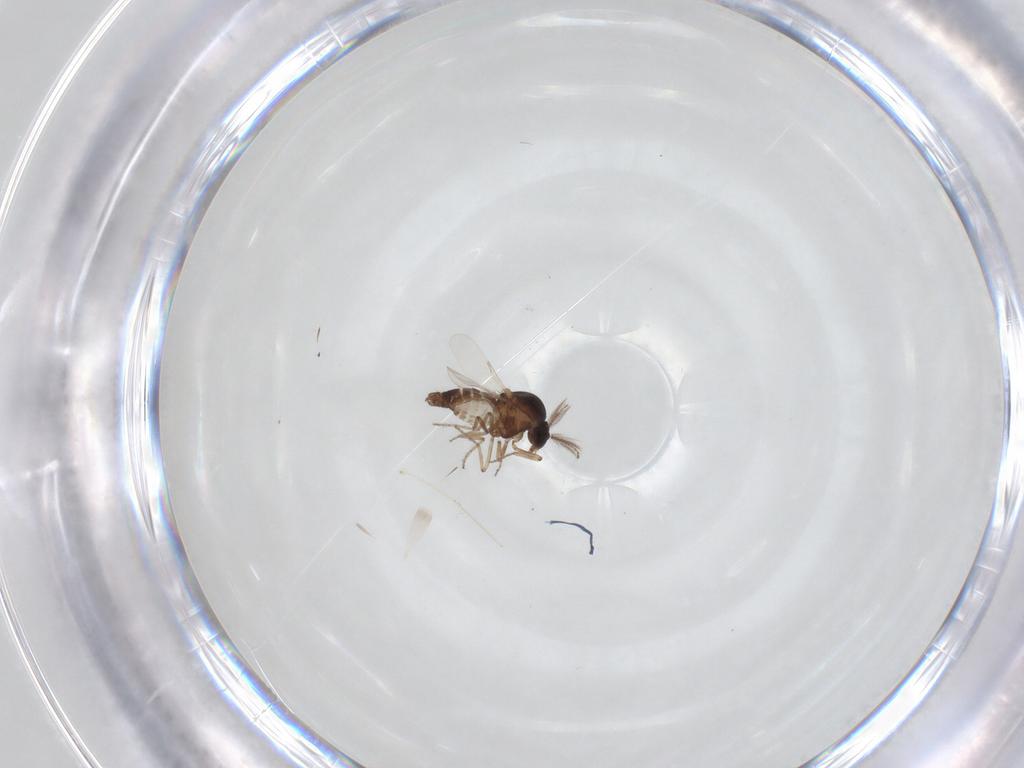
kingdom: Animalia
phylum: Arthropoda
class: Insecta
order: Diptera
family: Ceratopogonidae
